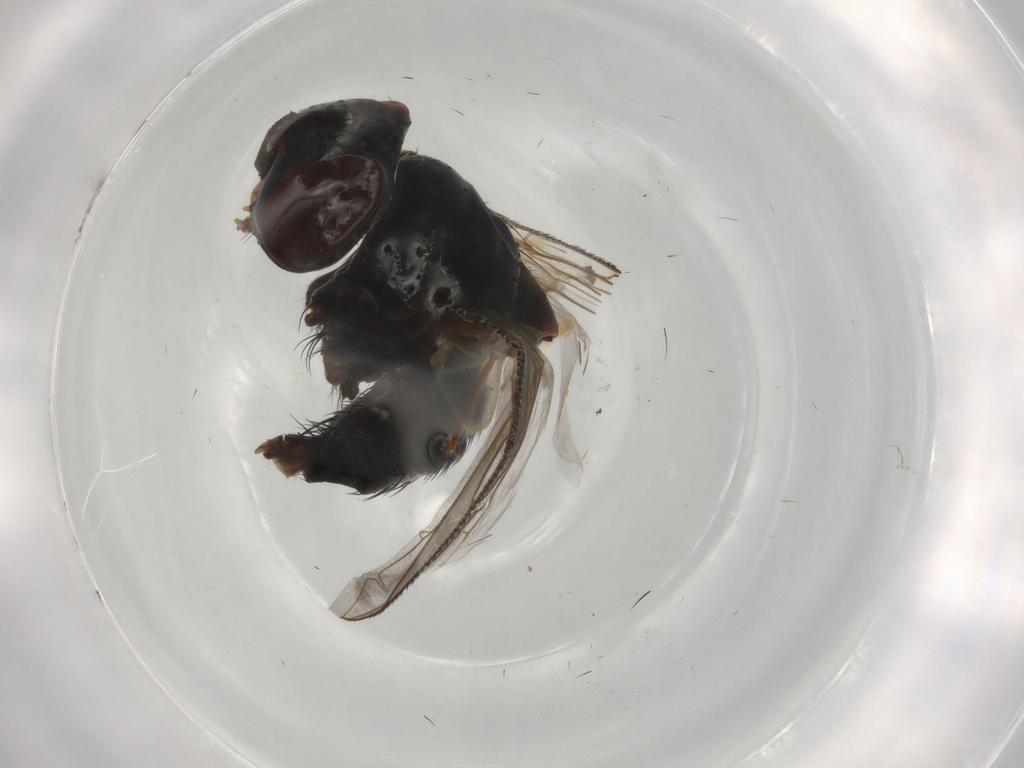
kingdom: Animalia
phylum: Arthropoda
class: Insecta
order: Diptera
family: Tachinidae
